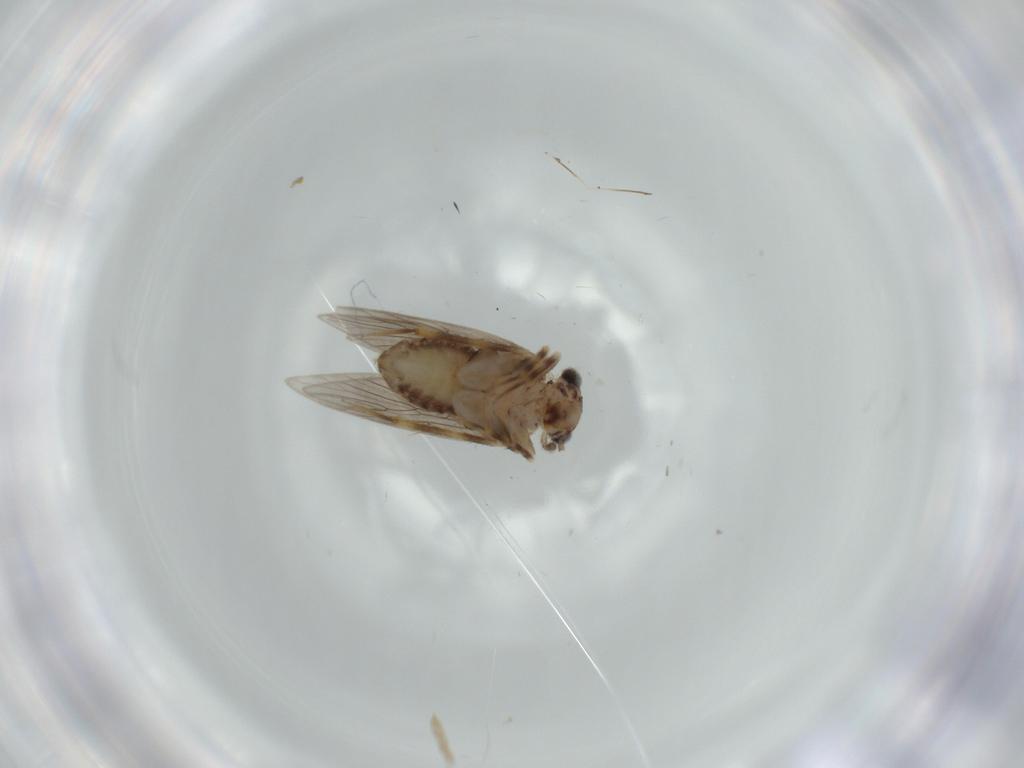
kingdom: Animalia
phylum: Arthropoda
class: Insecta
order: Psocodea
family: Lepidopsocidae
